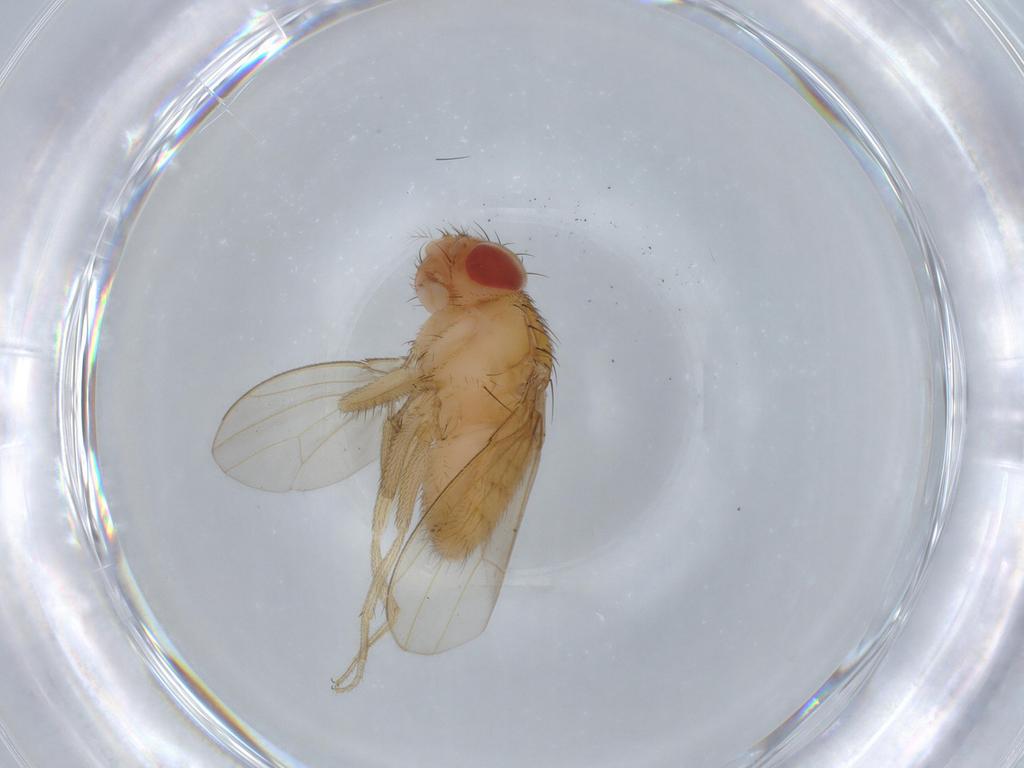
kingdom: Animalia
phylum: Arthropoda
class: Insecta
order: Diptera
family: Drosophilidae
